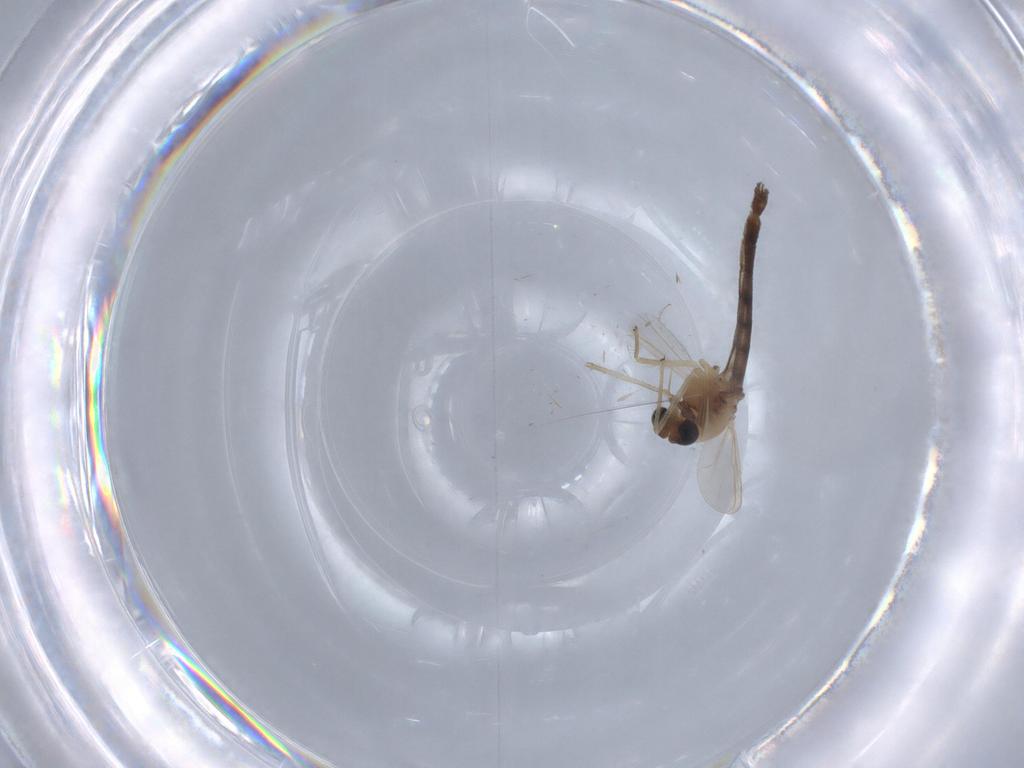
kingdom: Animalia
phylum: Arthropoda
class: Insecta
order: Diptera
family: Chironomidae
